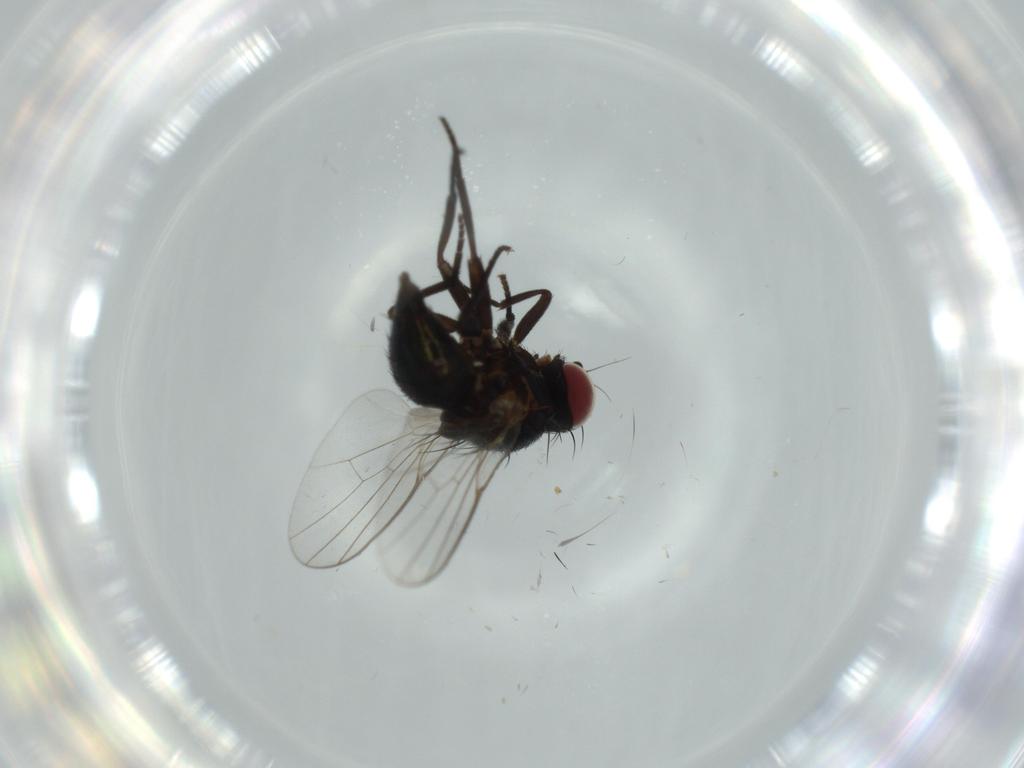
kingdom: Animalia
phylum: Arthropoda
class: Insecta
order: Diptera
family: Agromyzidae
